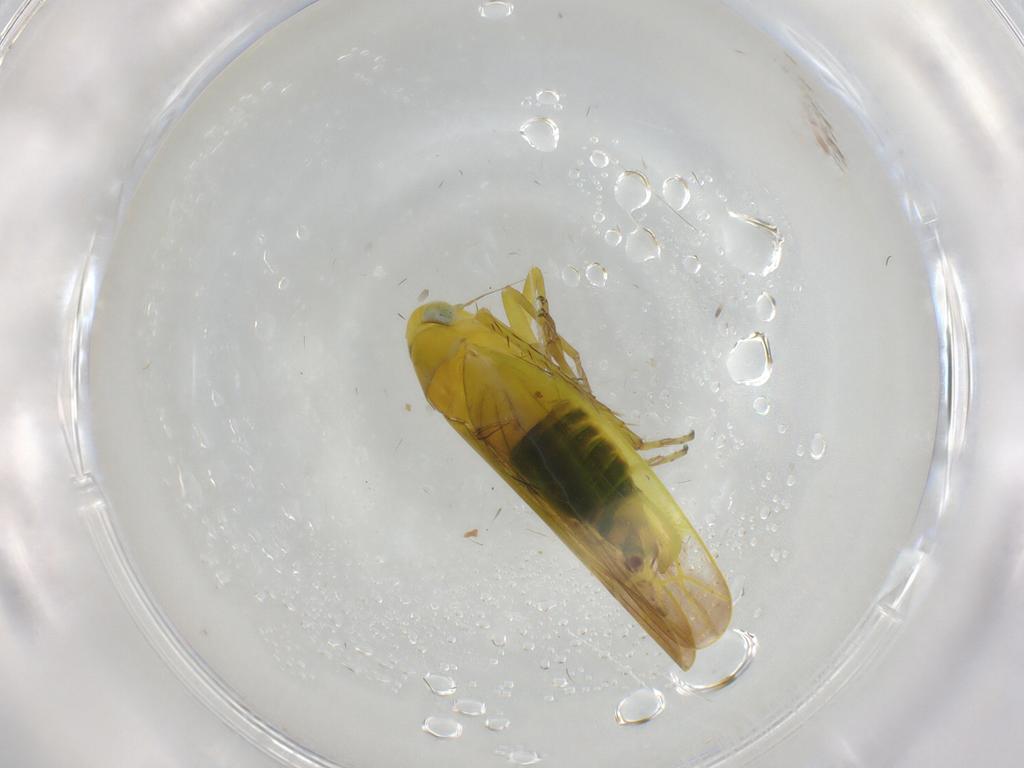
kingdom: Animalia
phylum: Arthropoda
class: Insecta
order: Hemiptera
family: Cicadellidae
